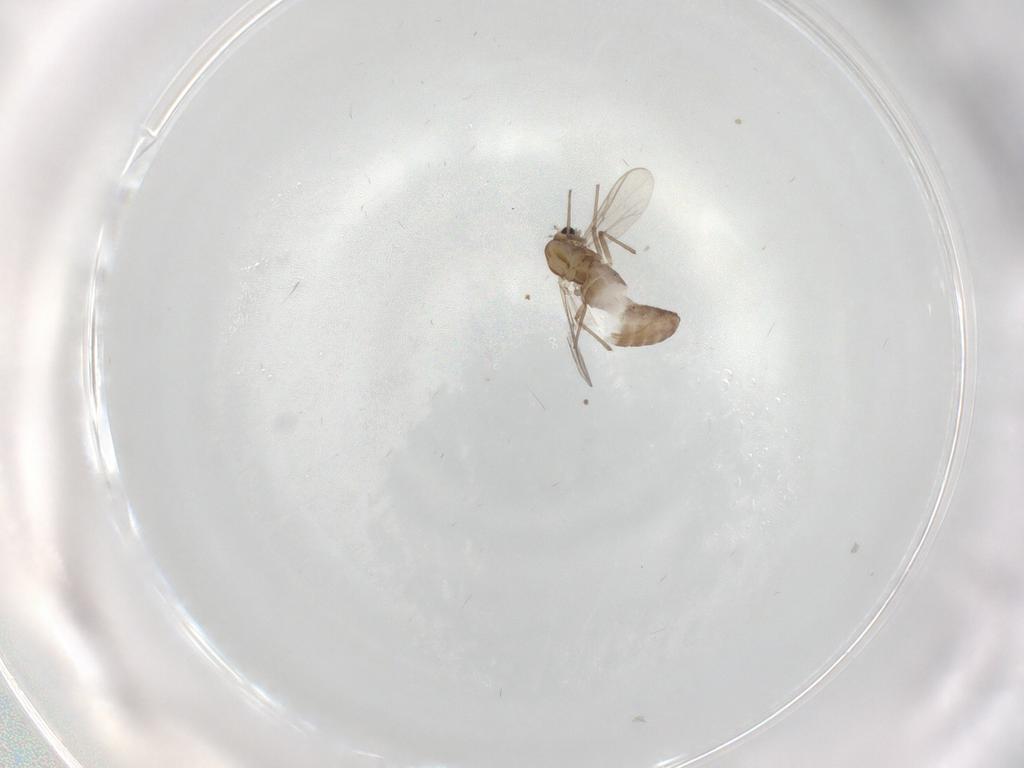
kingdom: Animalia
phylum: Arthropoda
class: Insecta
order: Diptera
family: Chironomidae
